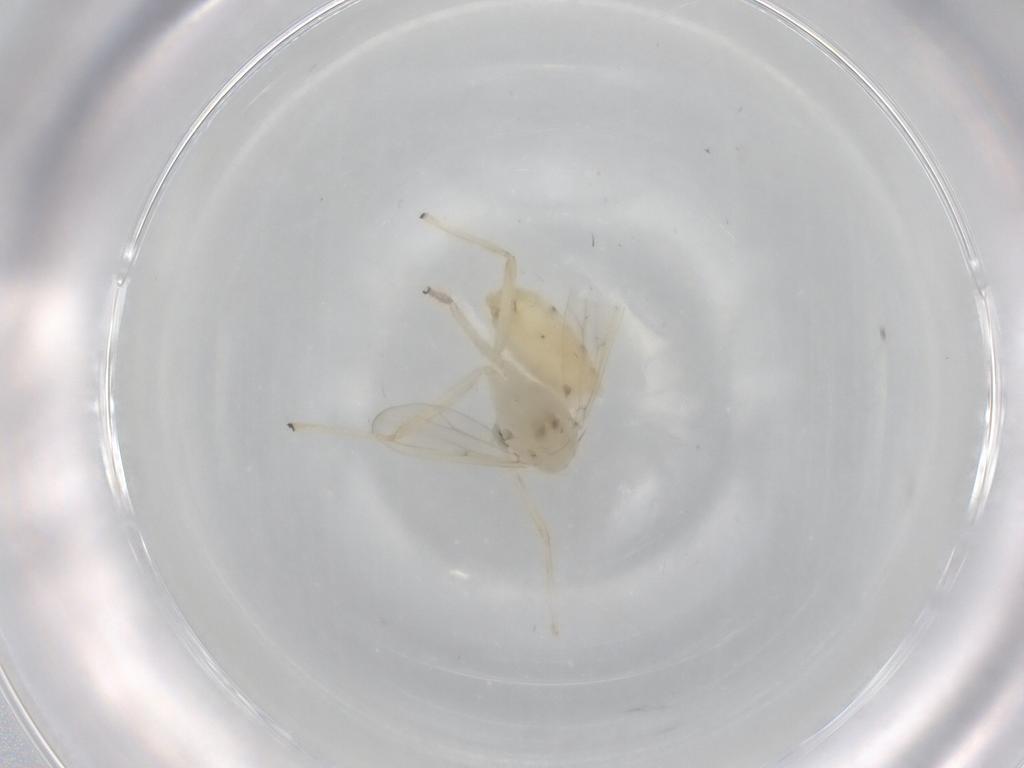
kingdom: Animalia
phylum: Arthropoda
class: Insecta
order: Diptera
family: Chironomidae
